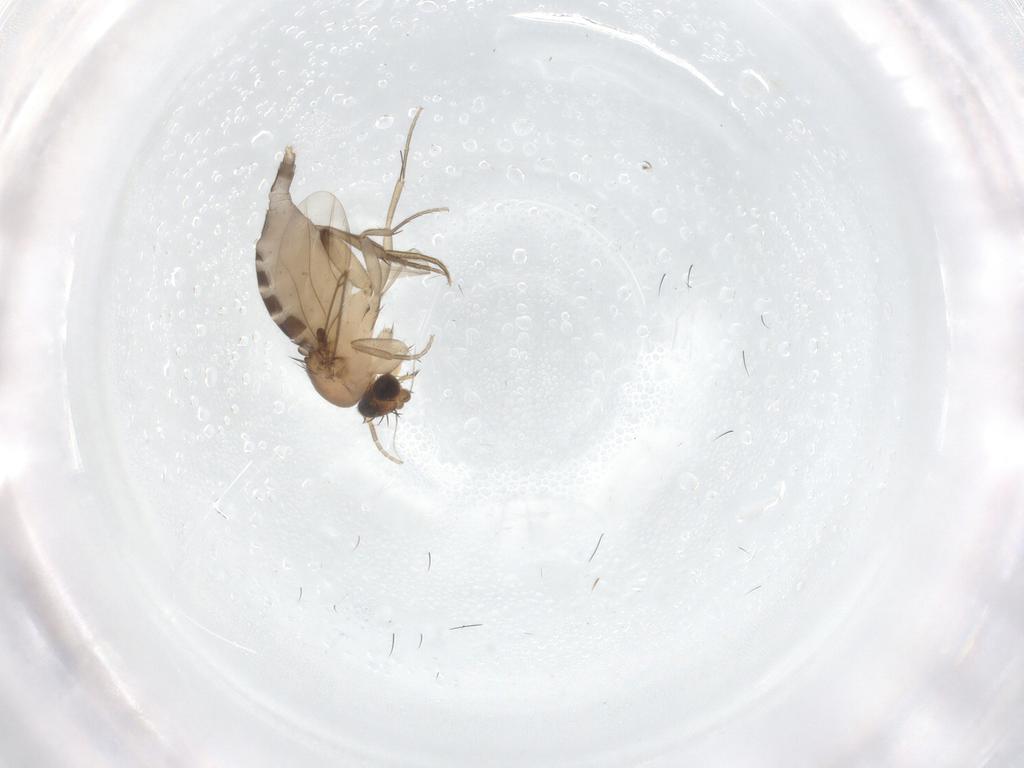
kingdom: Animalia
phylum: Arthropoda
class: Insecta
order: Diptera
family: Phoridae
